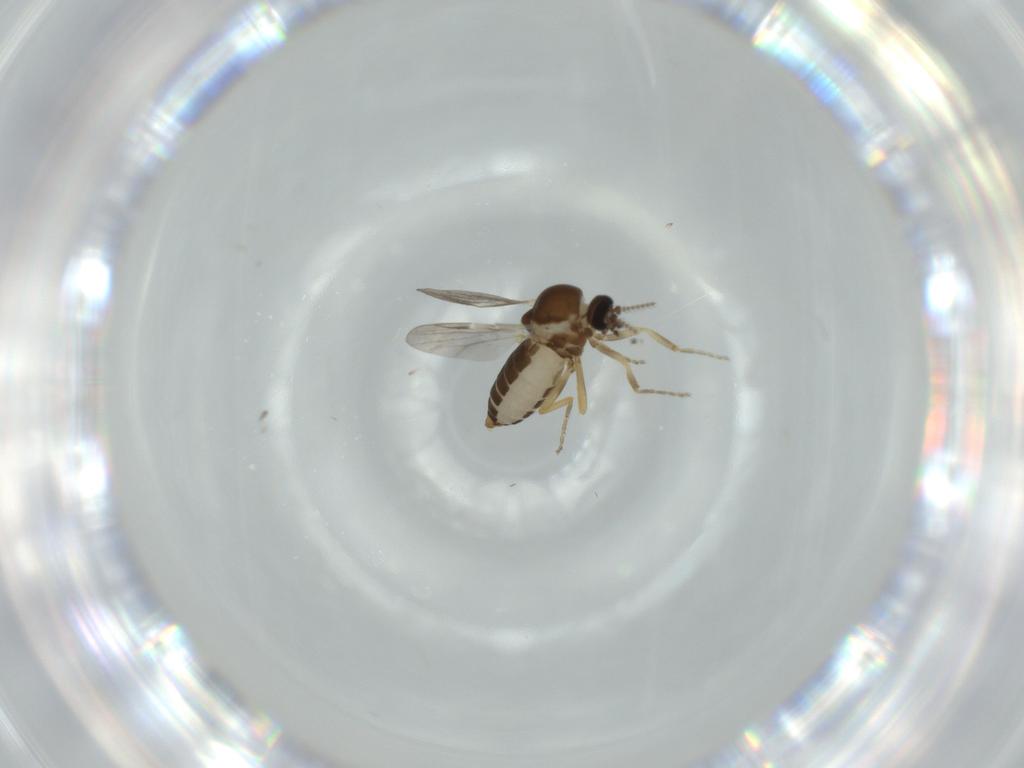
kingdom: Animalia
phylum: Arthropoda
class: Insecta
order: Diptera
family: Ceratopogonidae
